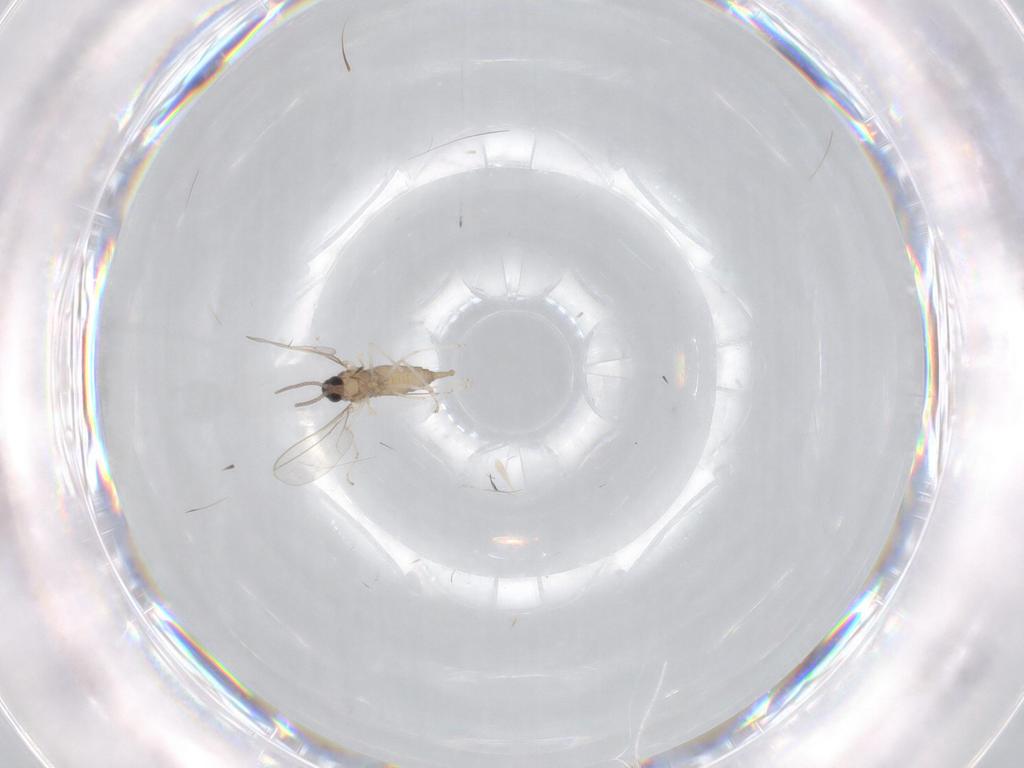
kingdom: Animalia
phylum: Arthropoda
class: Insecta
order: Diptera
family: Cecidomyiidae
